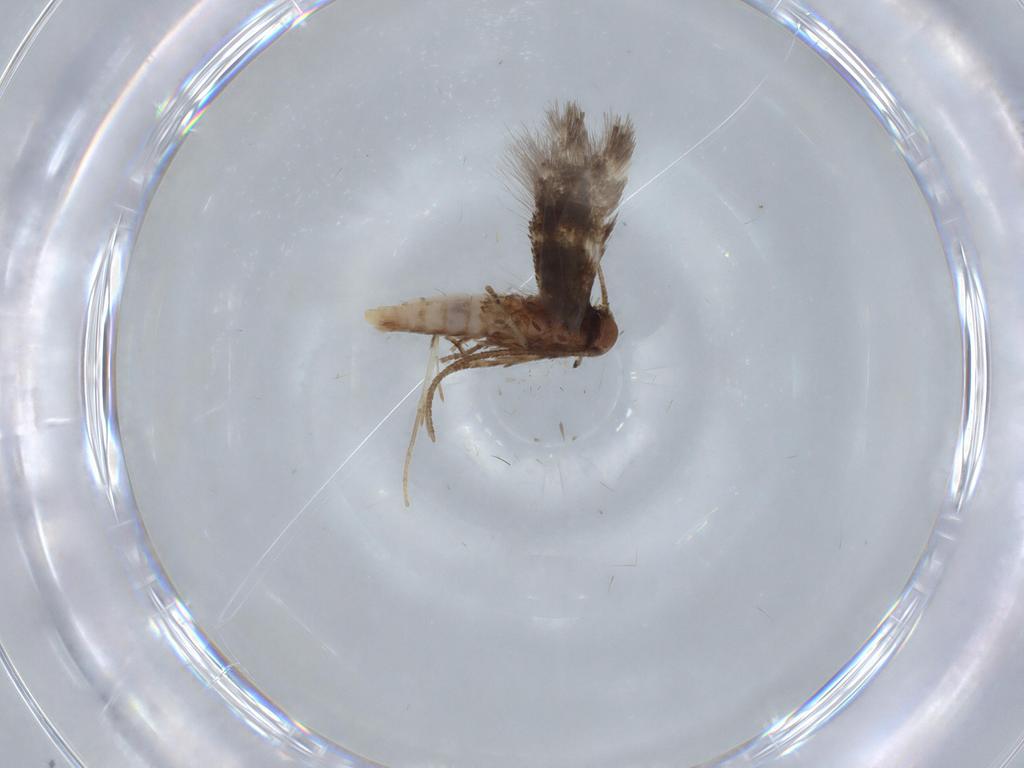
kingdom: Animalia
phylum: Arthropoda
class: Insecta
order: Lepidoptera
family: Elachistidae
